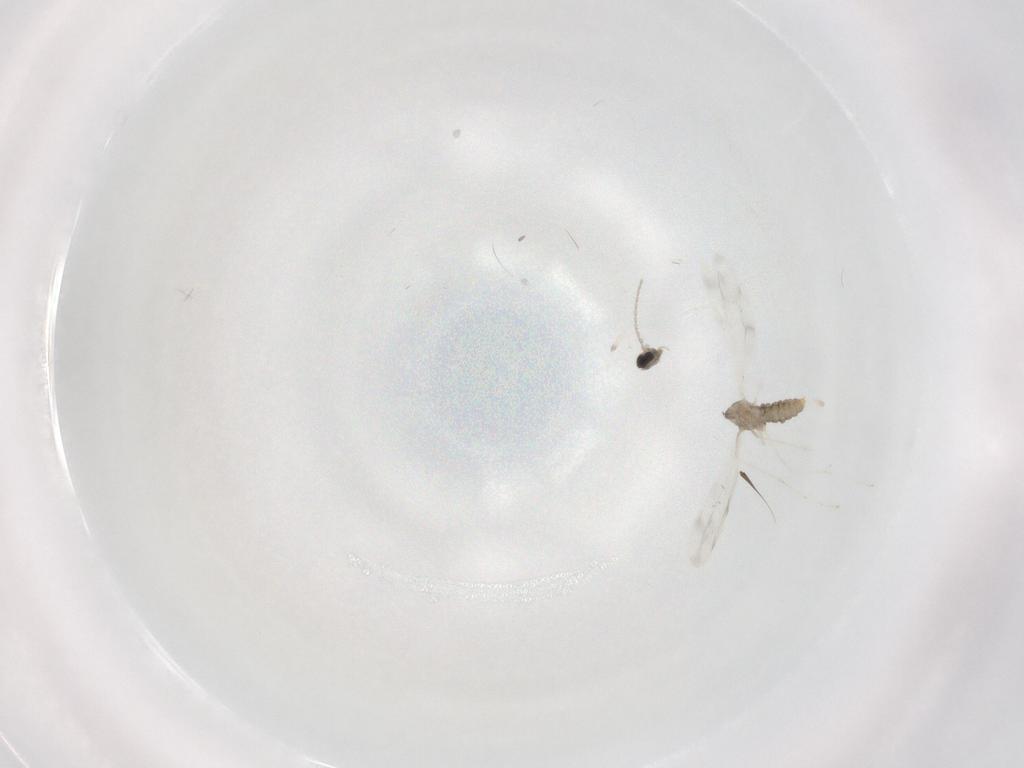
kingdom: Animalia
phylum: Arthropoda
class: Insecta
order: Diptera
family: Cecidomyiidae
